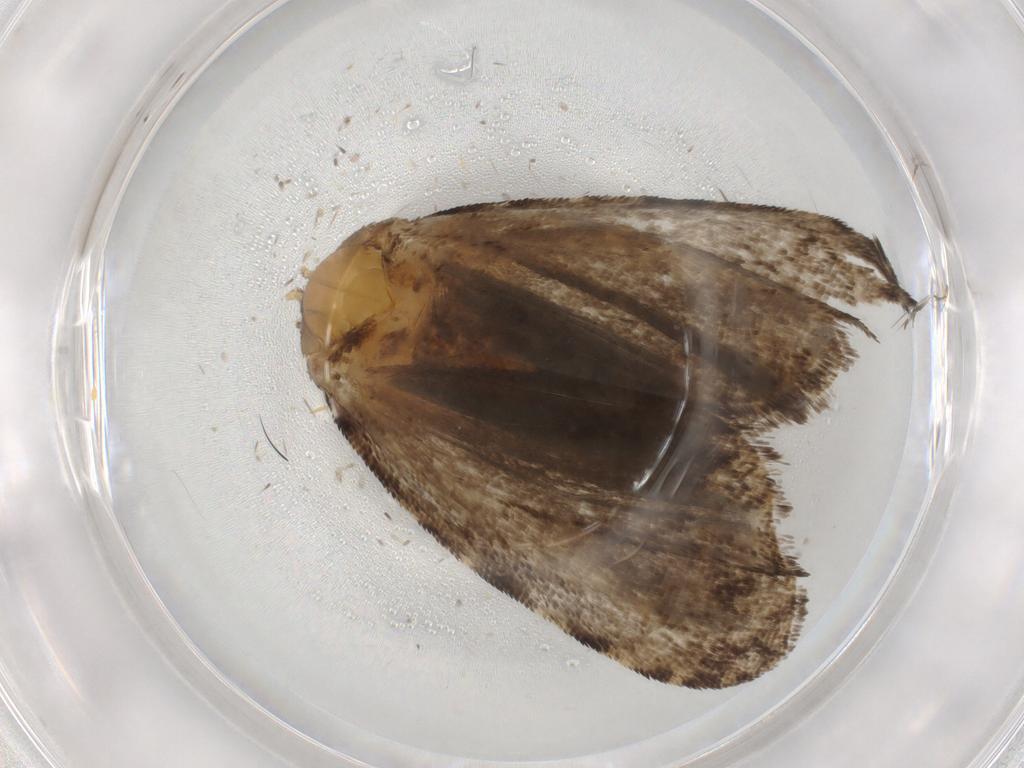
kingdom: Animalia
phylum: Arthropoda
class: Insecta
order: Lepidoptera
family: Tortricidae
